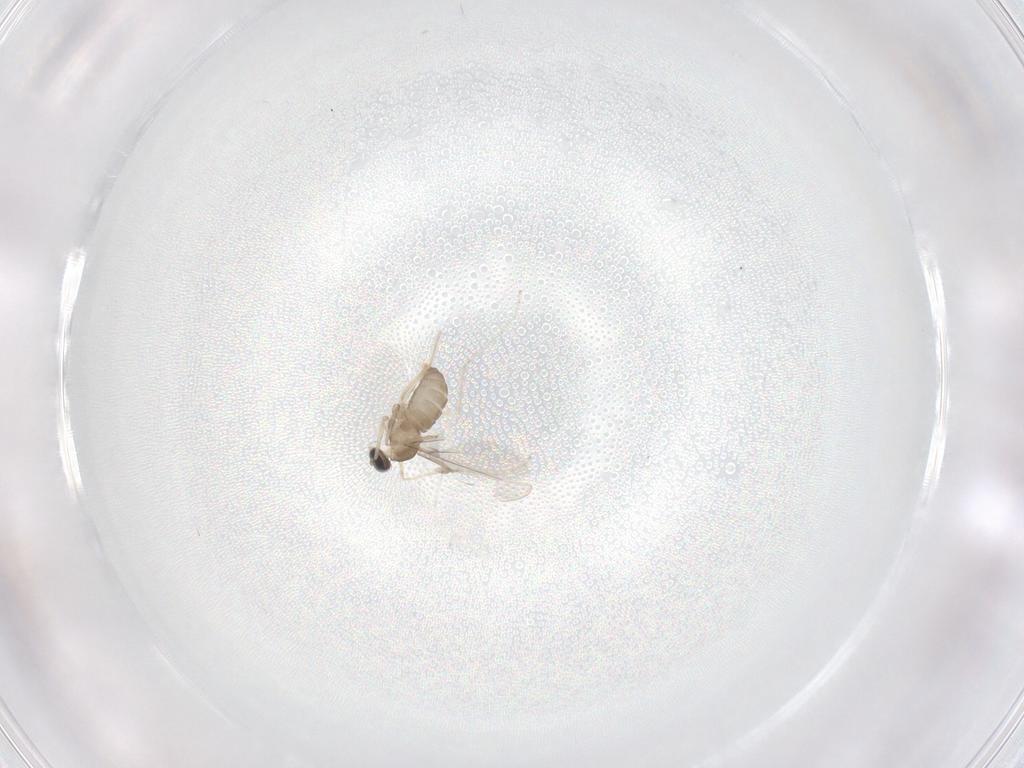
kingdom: Animalia
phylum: Arthropoda
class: Insecta
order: Diptera
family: Cecidomyiidae
